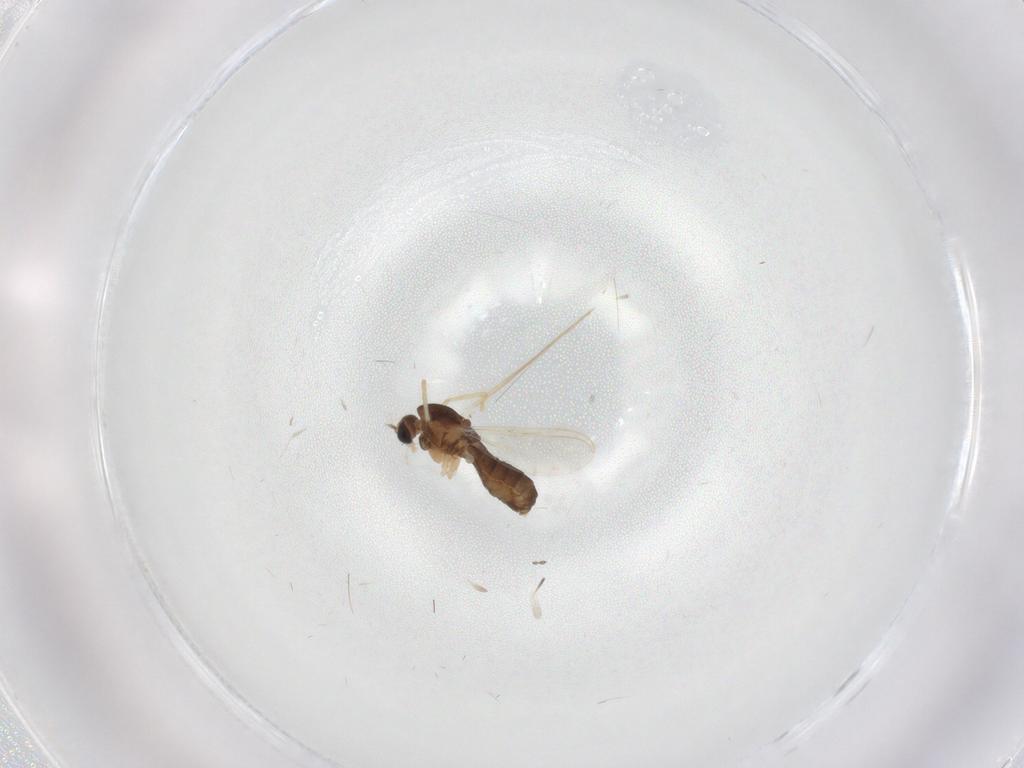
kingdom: Animalia
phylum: Arthropoda
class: Insecta
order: Diptera
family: Chironomidae
